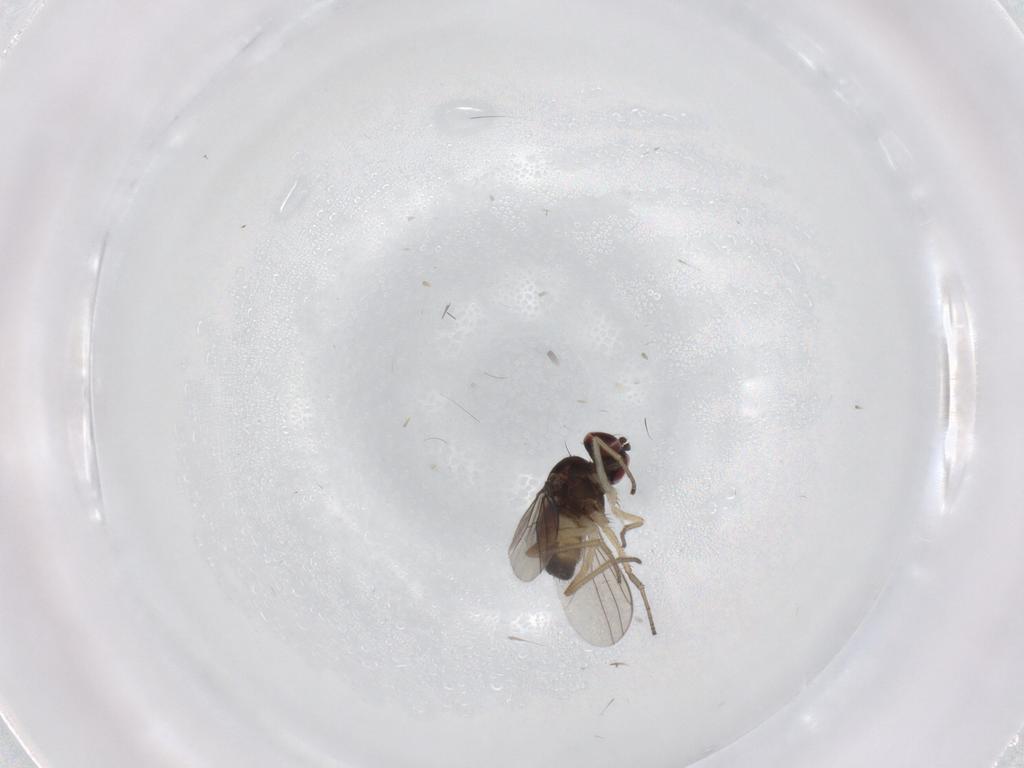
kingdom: Animalia
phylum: Arthropoda
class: Insecta
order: Diptera
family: Dolichopodidae
